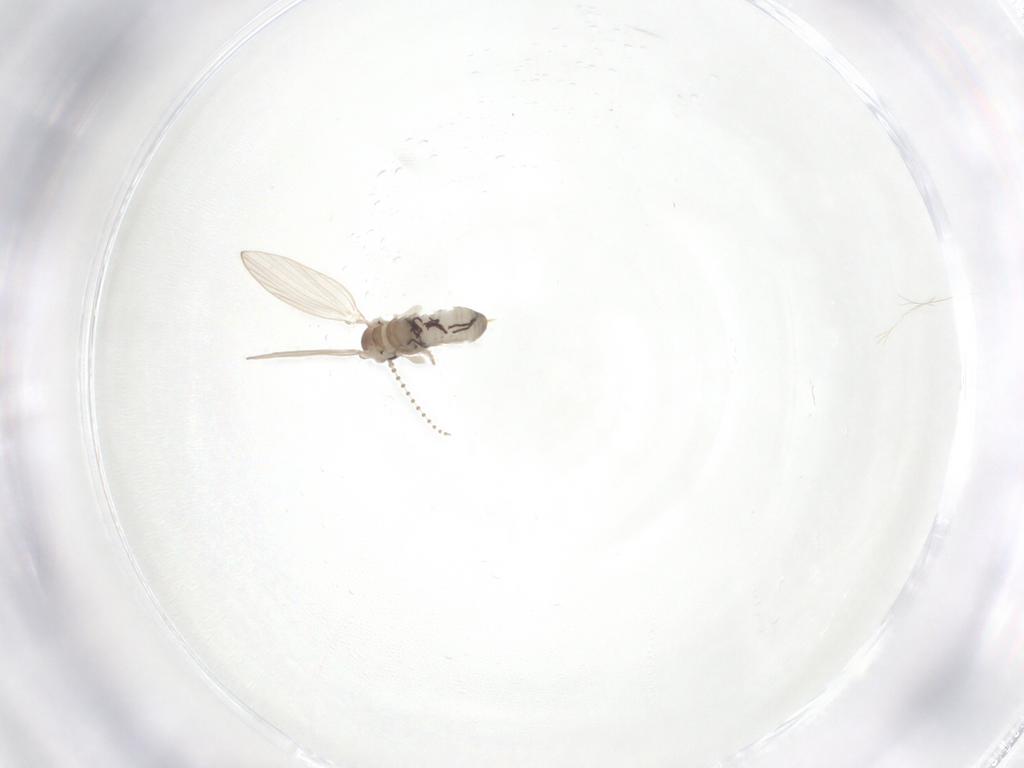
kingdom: Animalia
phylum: Arthropoda
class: Insecta
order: Diptera
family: Psychodidae
